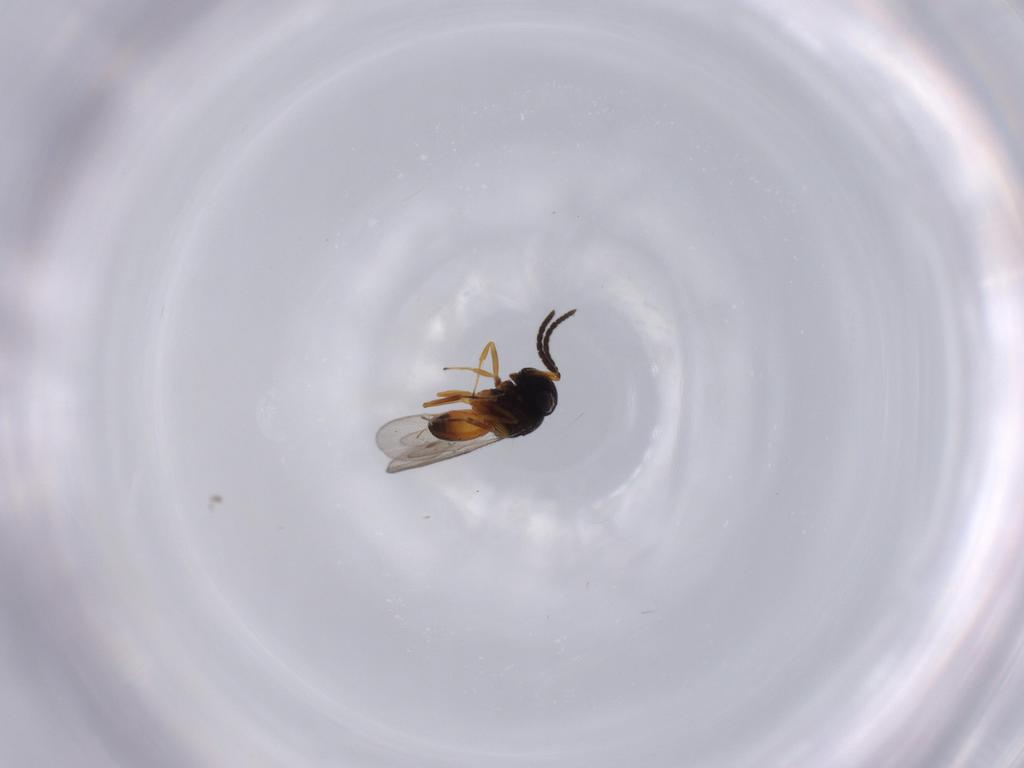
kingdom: Animalia
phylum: Arthropoda
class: Insecta
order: Hymenoptera
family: Scelionidae
